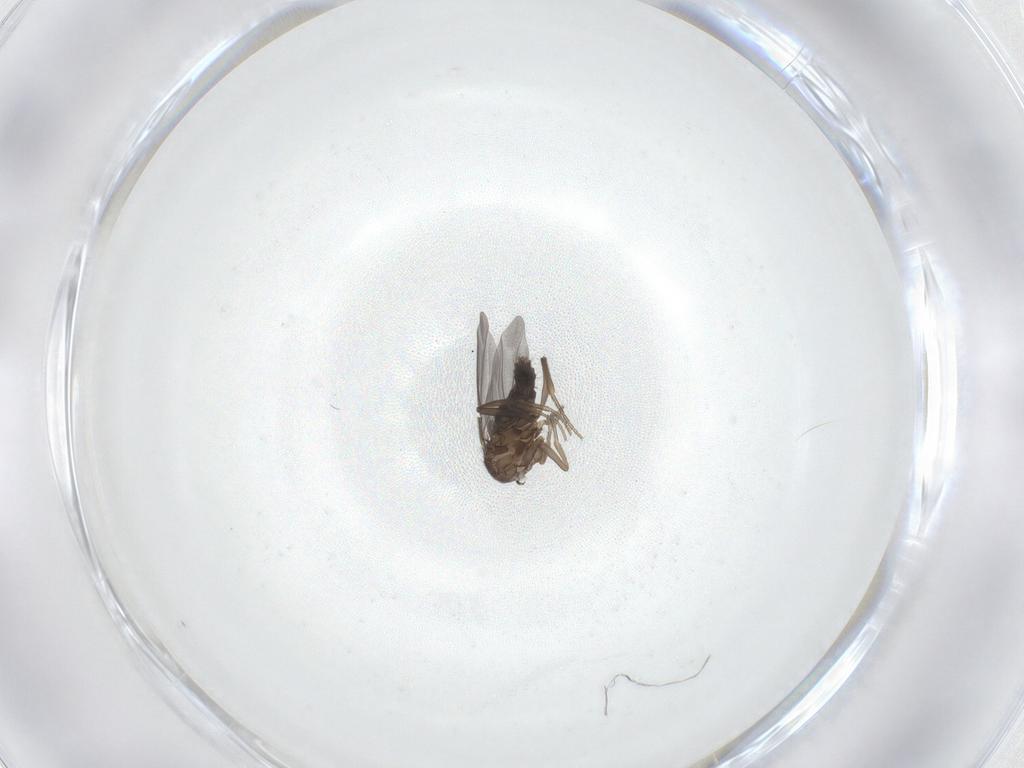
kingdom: Animalia
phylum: Arthropoda
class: Insecta
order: Diptera
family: Phoridae
